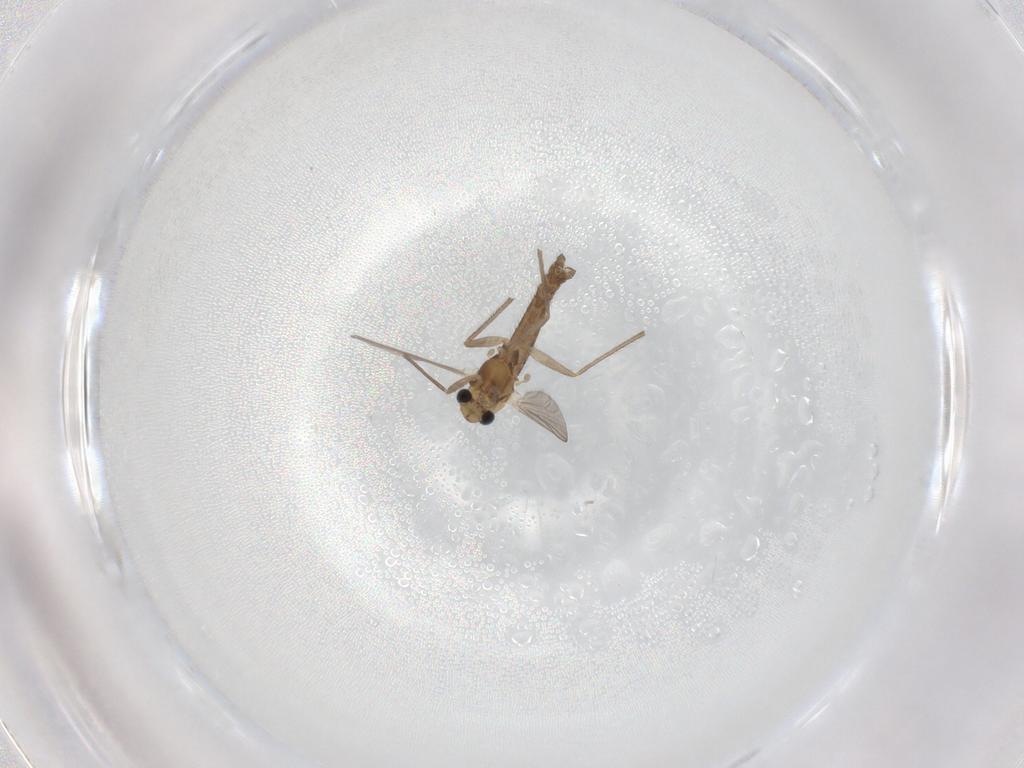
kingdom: Animalia
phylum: Arthropoda
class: Insecta
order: Diptera
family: Chironomidae
